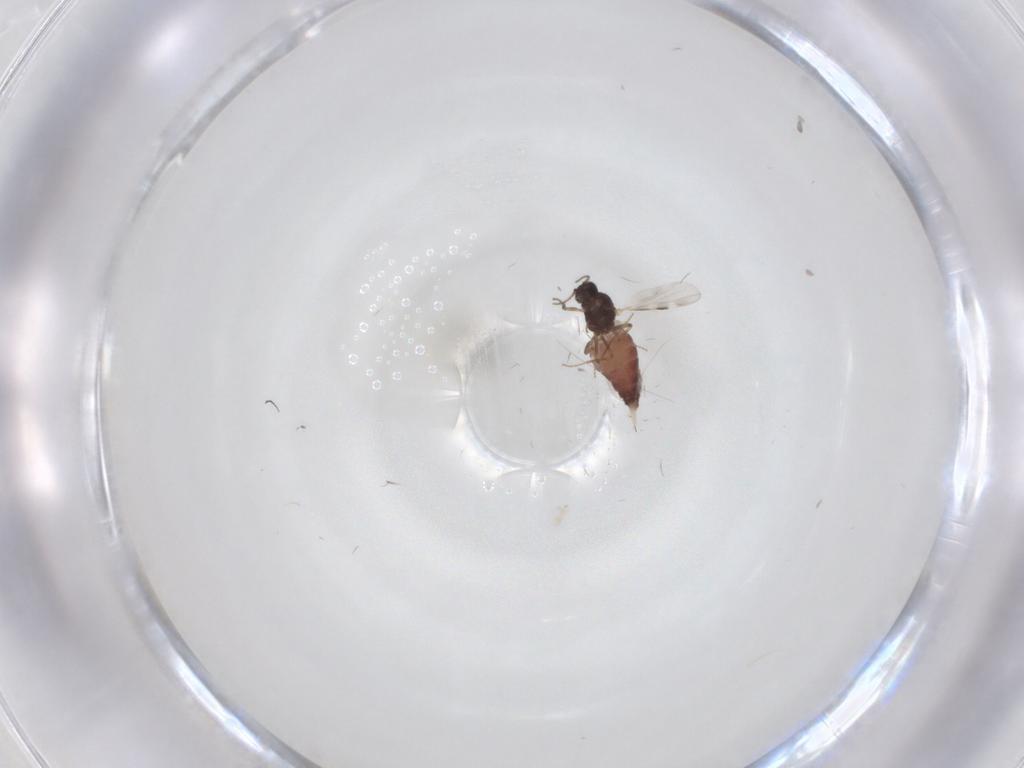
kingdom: Animalia
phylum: Arthropoda
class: Insecta
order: Diptera
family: Ceratopogonidae
